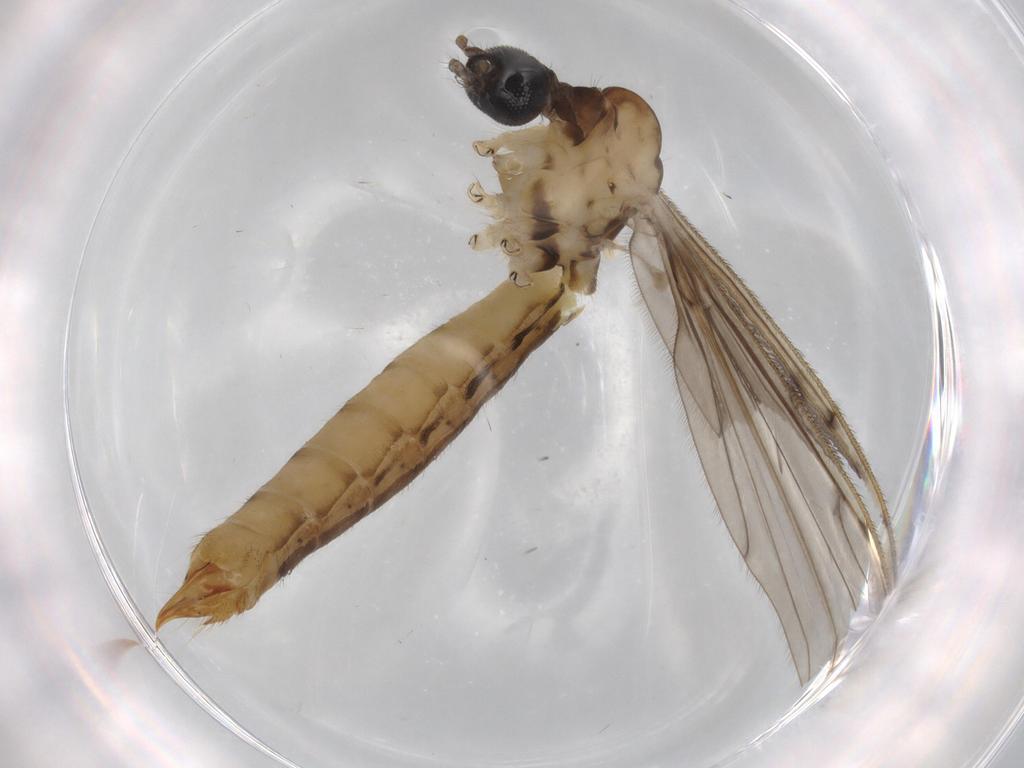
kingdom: Animalia
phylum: Arthropoda
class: Insecta
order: Diptera
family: Limoniidae
